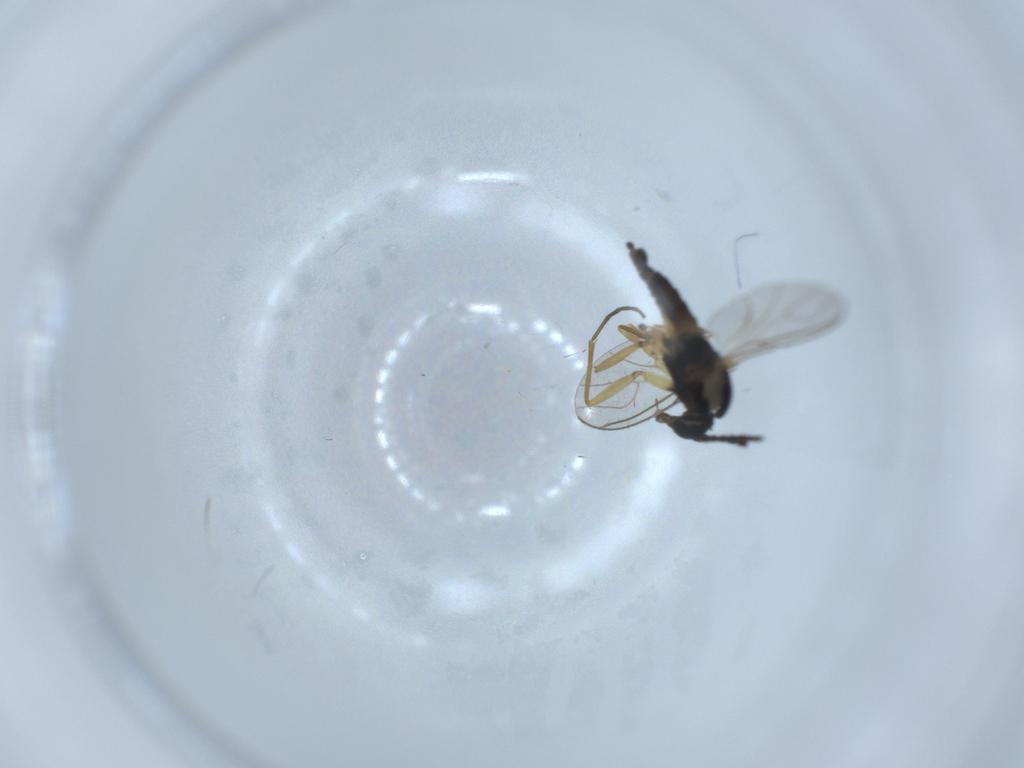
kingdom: Animalia
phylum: Arthropoda
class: Insecta
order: Diptera
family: Sciaridae
